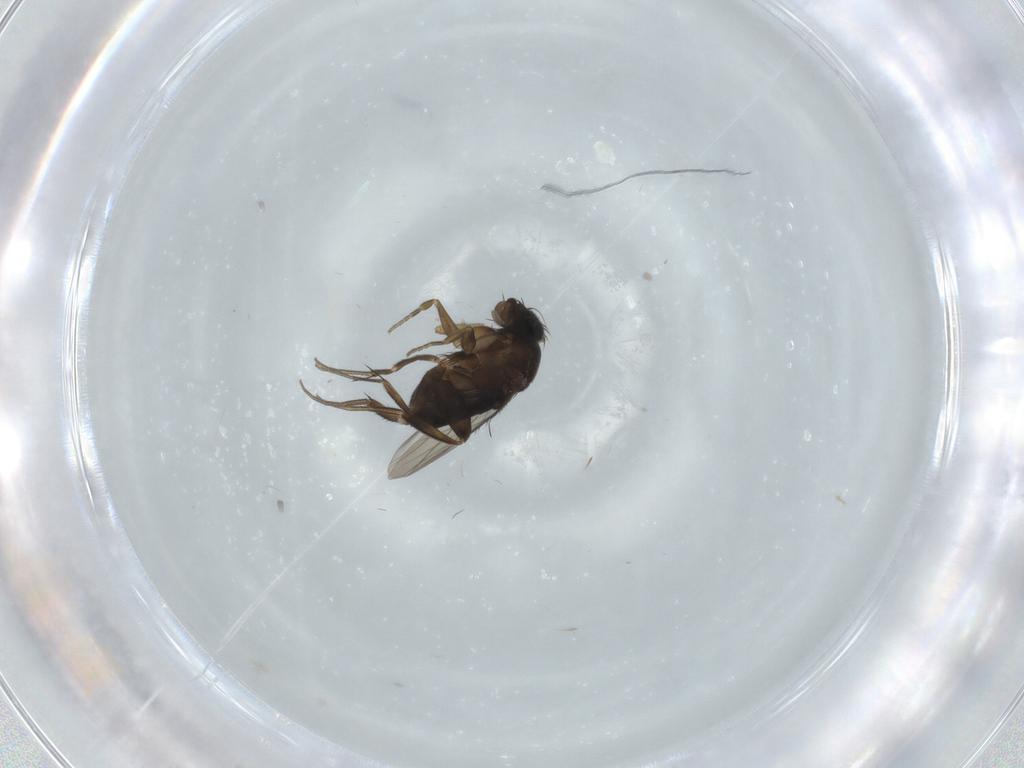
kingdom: Animalia
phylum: Arthropoda
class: Insecta
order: Diptera
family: Phoridae
